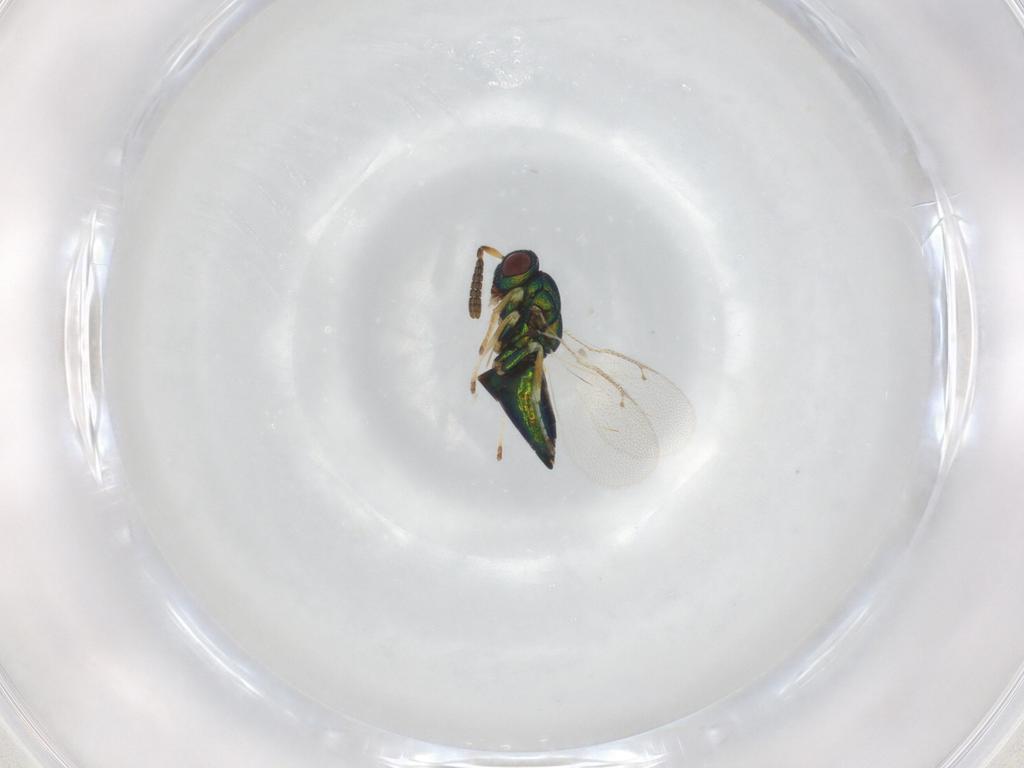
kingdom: Animalia
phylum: Arthropoda
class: Insecta
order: Hymenoptera
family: Pteromalidae
